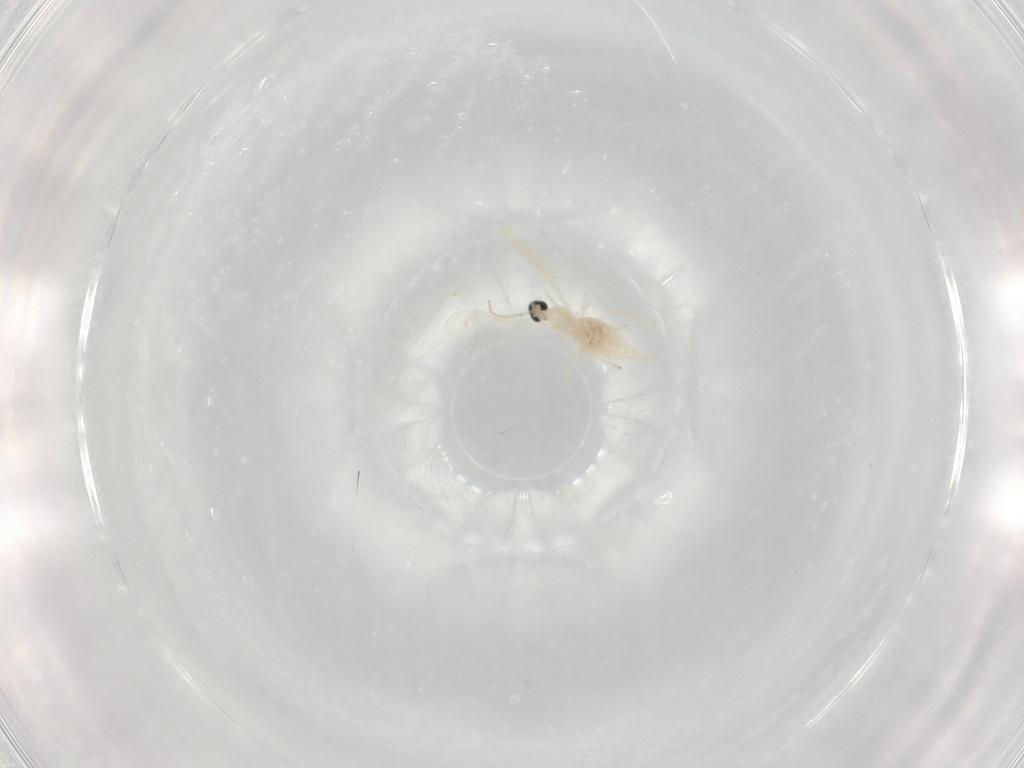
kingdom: Animalia
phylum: Arthropoda
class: Insecta
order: Diptera
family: Cecidomyiidae
